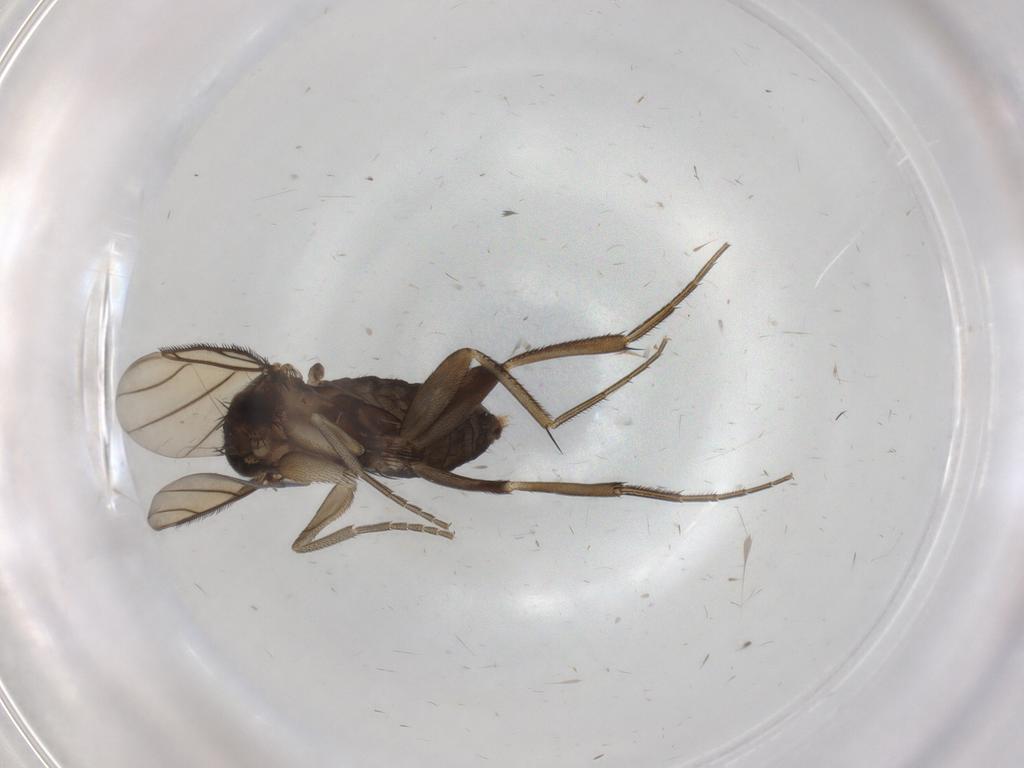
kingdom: Animalia
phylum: Arthropoda
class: Insecta
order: Diptera
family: Phoridae
